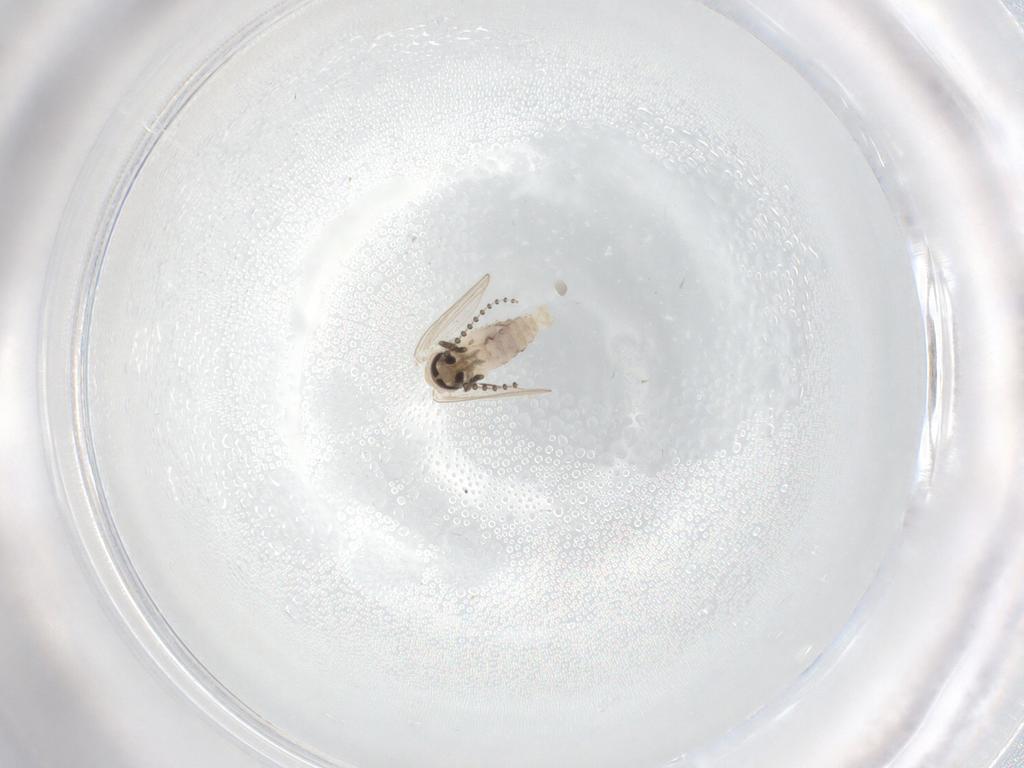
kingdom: Animalia
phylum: Arthropoda
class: Insecta
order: Diptera
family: Psychodidae
